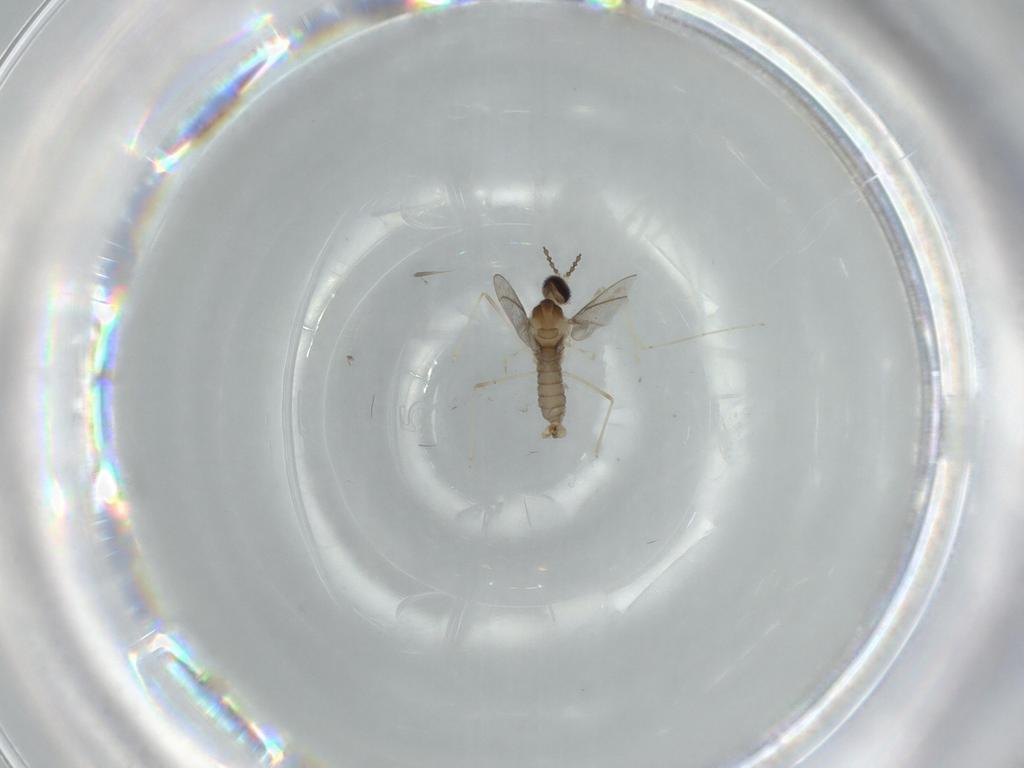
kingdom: Animalia
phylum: Arthropoda
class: Insecta
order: Diptera
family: Cecidomyiidae
